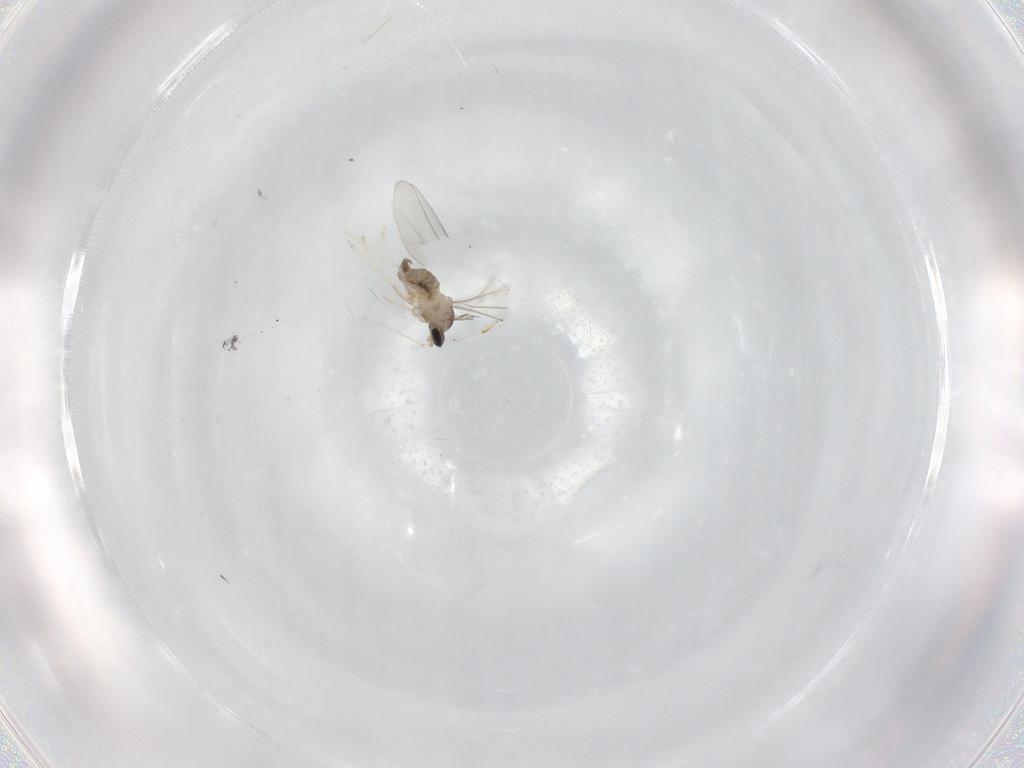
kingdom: Animalia
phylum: Arthropoda
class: Insecta
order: Diptera
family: Cecidomyiidae
